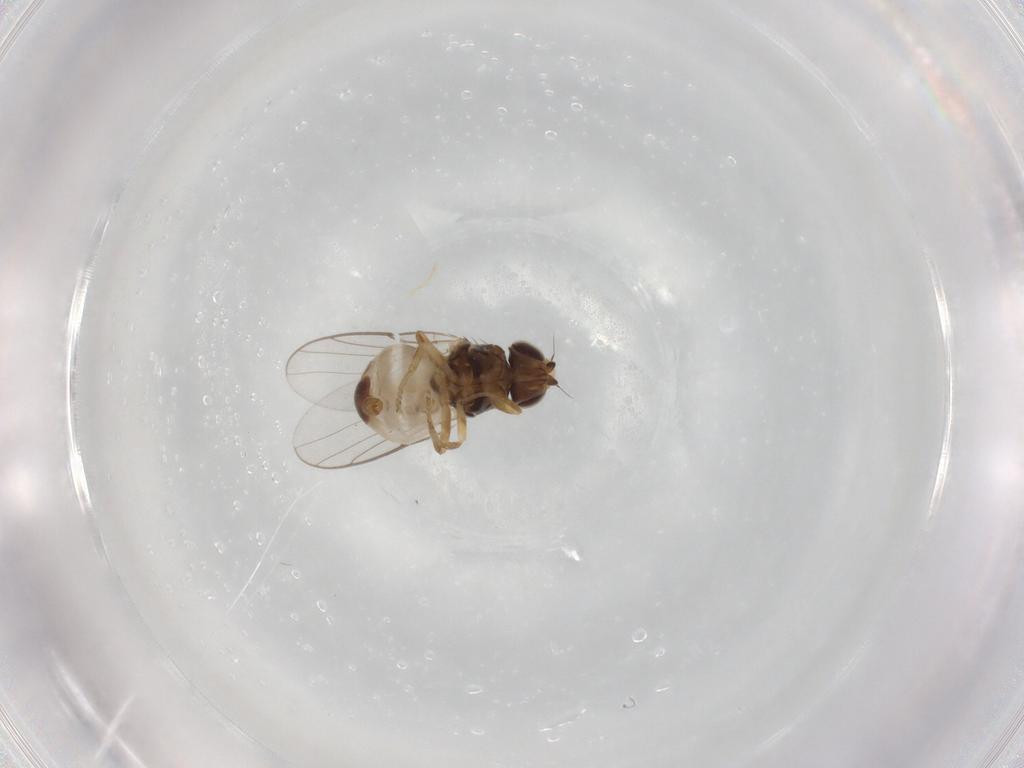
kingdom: Animalia
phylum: Arthropoda
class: Insecta
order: Diptera
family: Chloropidae
